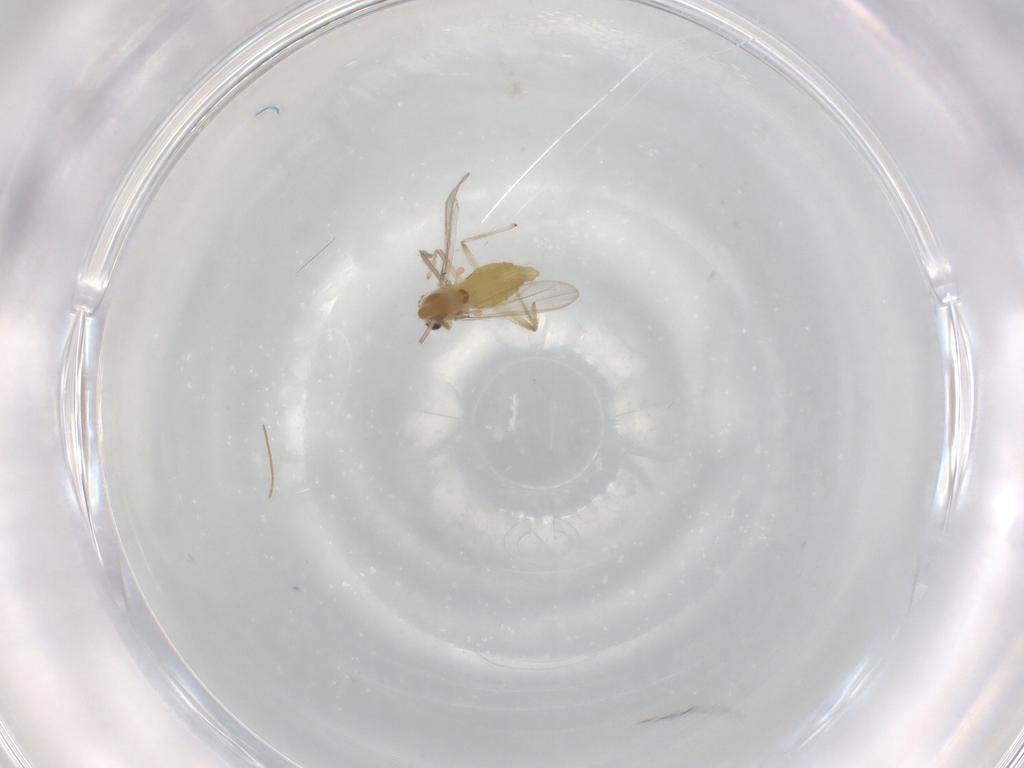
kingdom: Animalia
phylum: Arthropoda
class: Insecta
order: Diptera
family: Chironomidae
